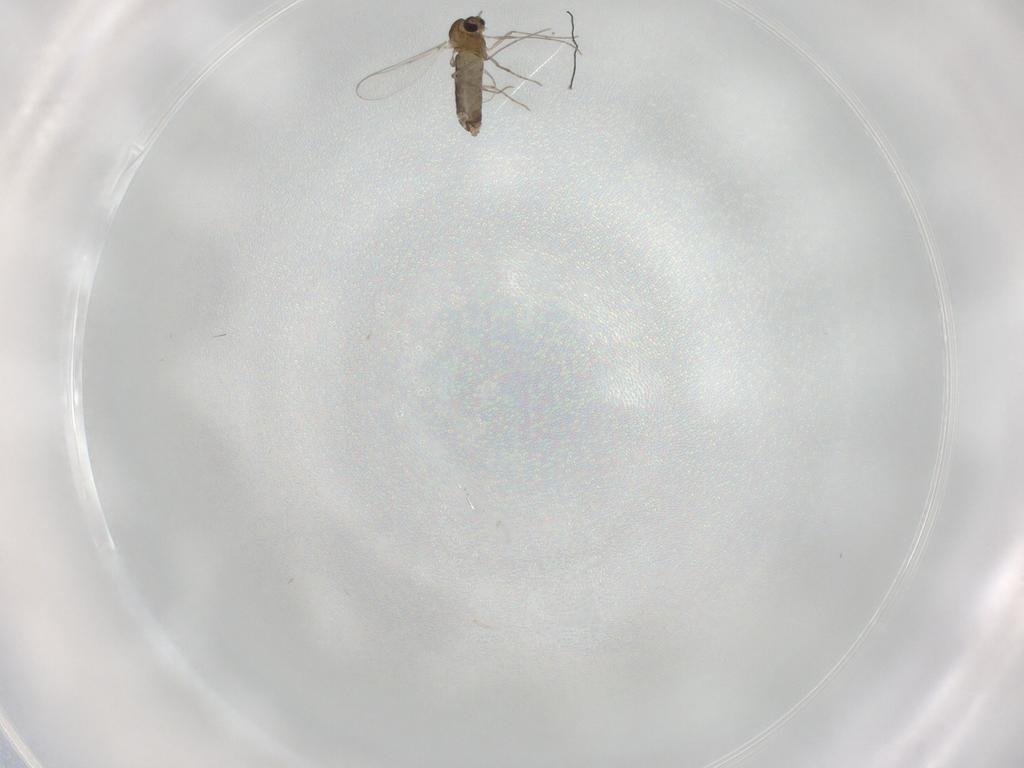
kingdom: Animalia
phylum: Arthropoda
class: Insecta
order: Diptera
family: Chironomidae
